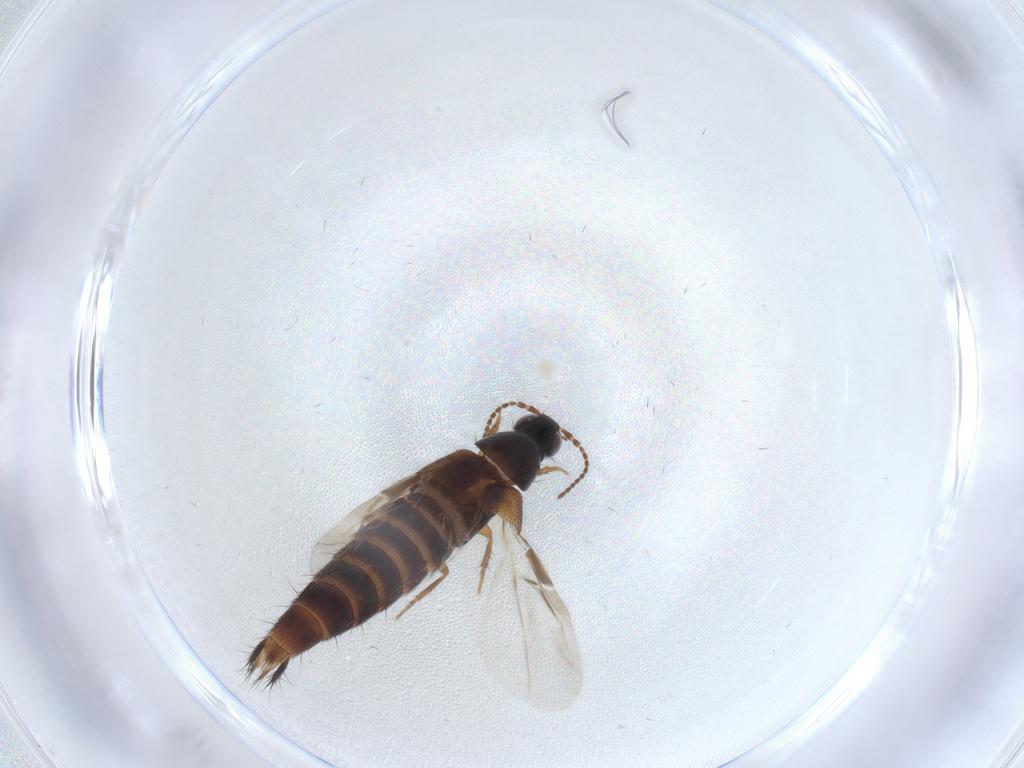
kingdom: Animalia
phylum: Arthropoda
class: Insecta
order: Coleoptera
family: Staphylinidae
